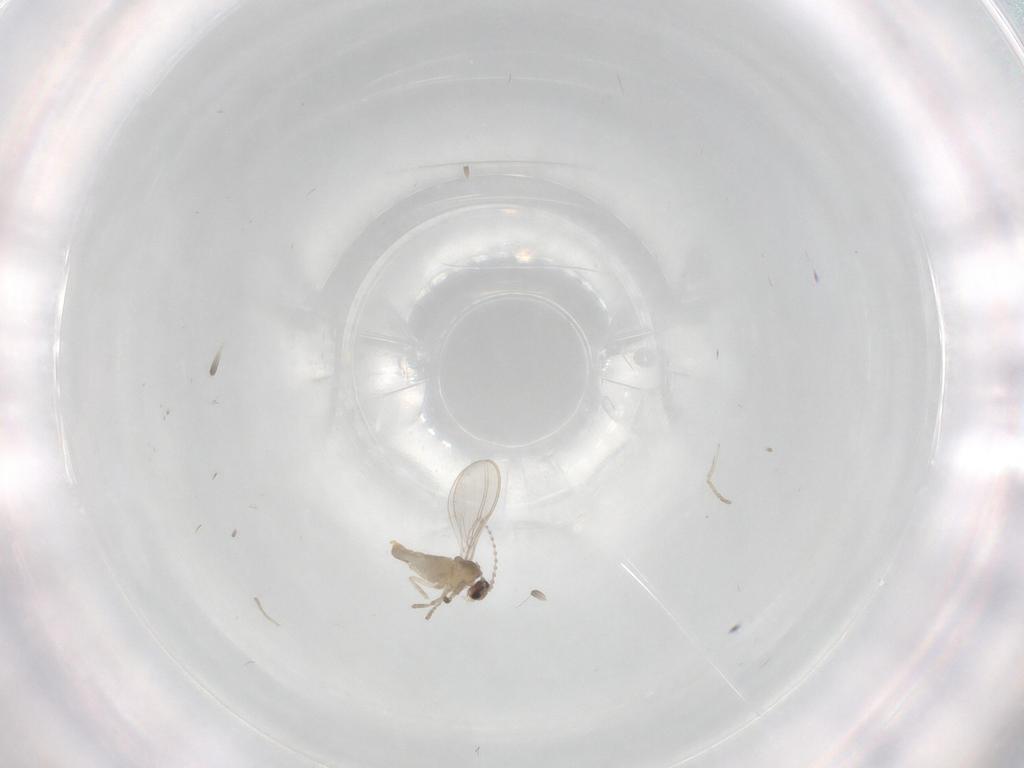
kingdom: Animalia
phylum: Arthropoda
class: Insecta
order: Diptera
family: Cecidomyiidae
